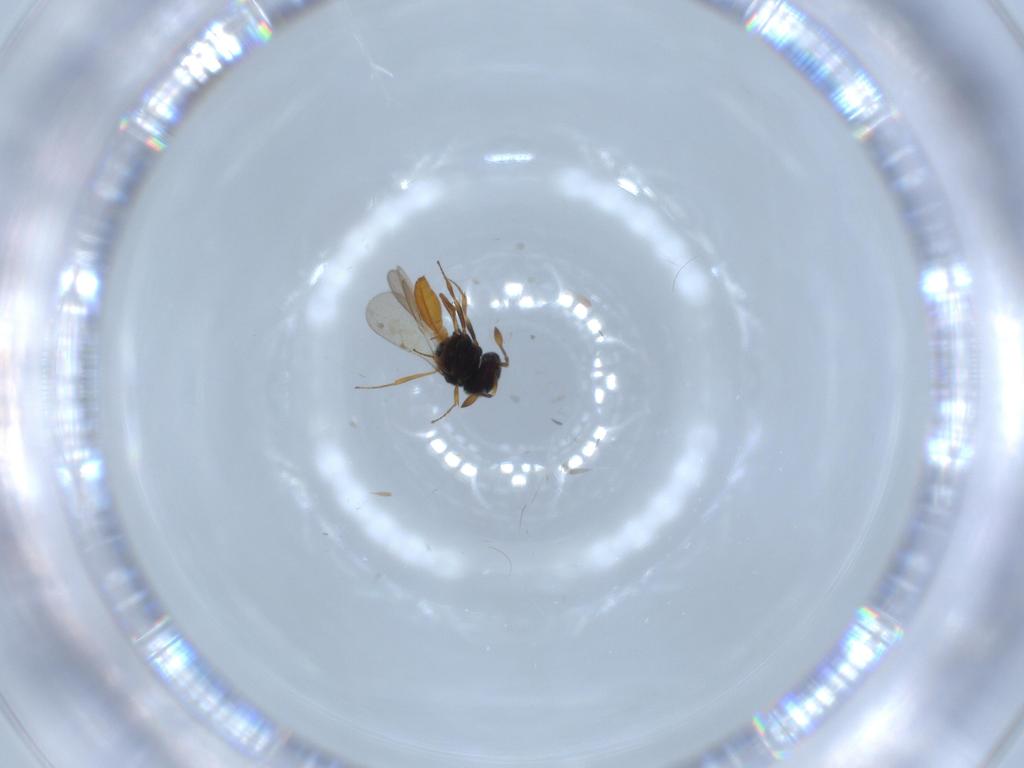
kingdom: Animalia
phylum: Arthropoda
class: Insecta
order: Hymenoptera
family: Scelionidae
